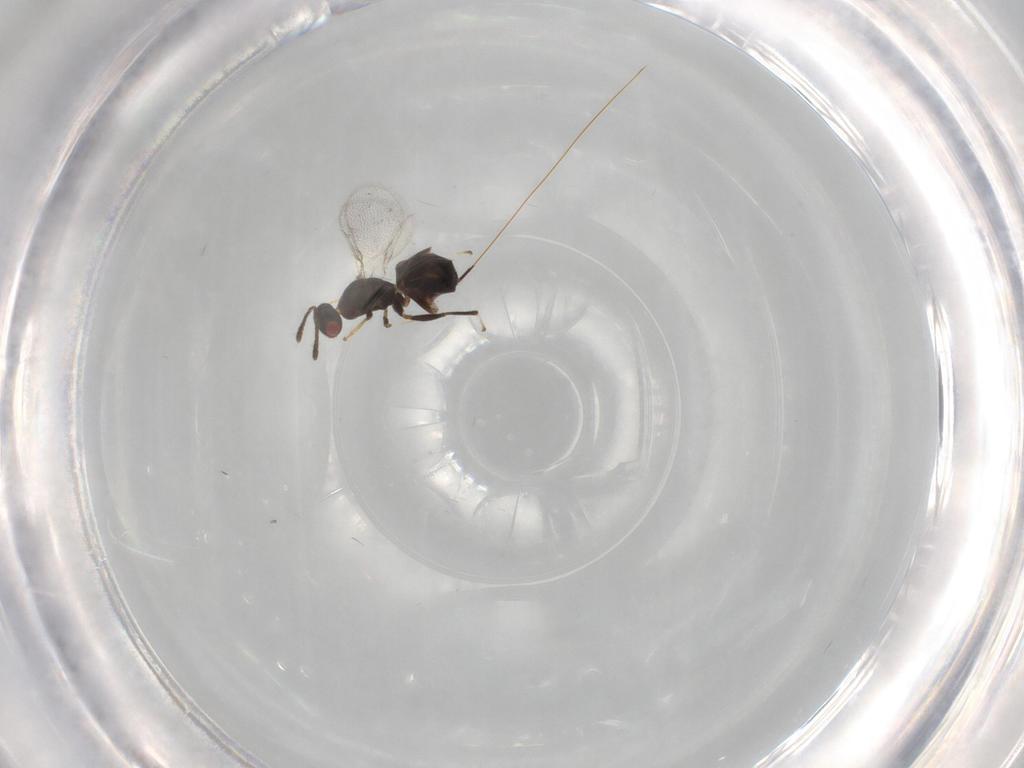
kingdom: Animalia
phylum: Arthropoda
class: Insecta
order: Hymenoptera
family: Torymidae
